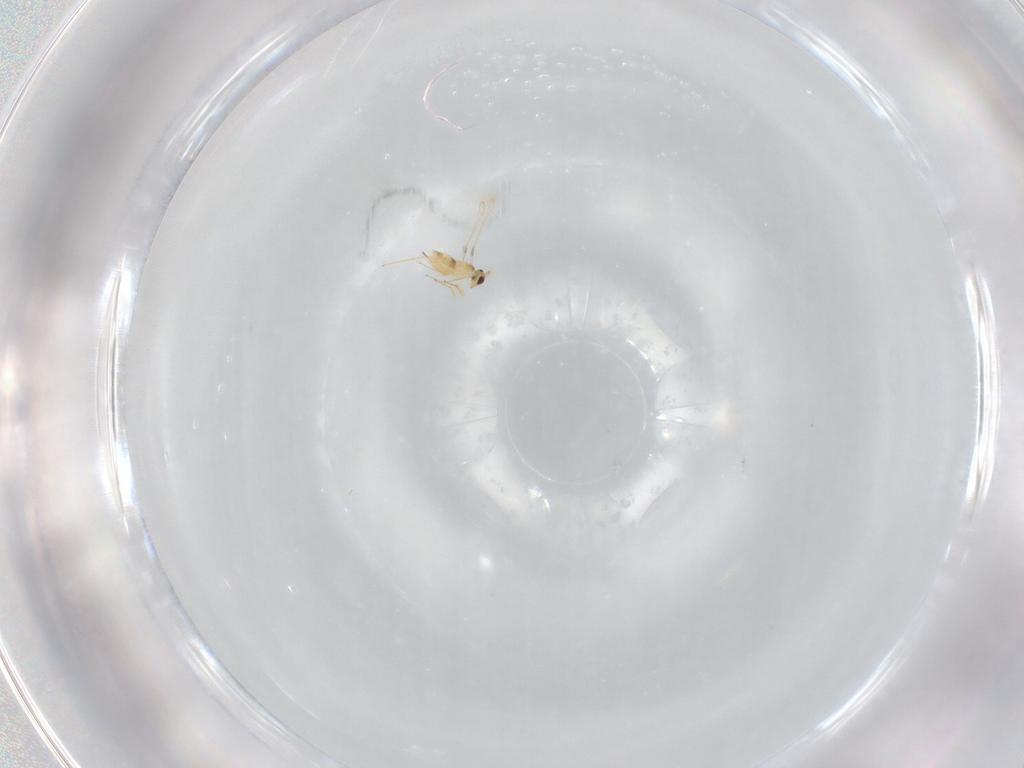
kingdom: Animalia
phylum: Arthropoda
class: Insecta
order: Hymenoptera
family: Mymaridae
